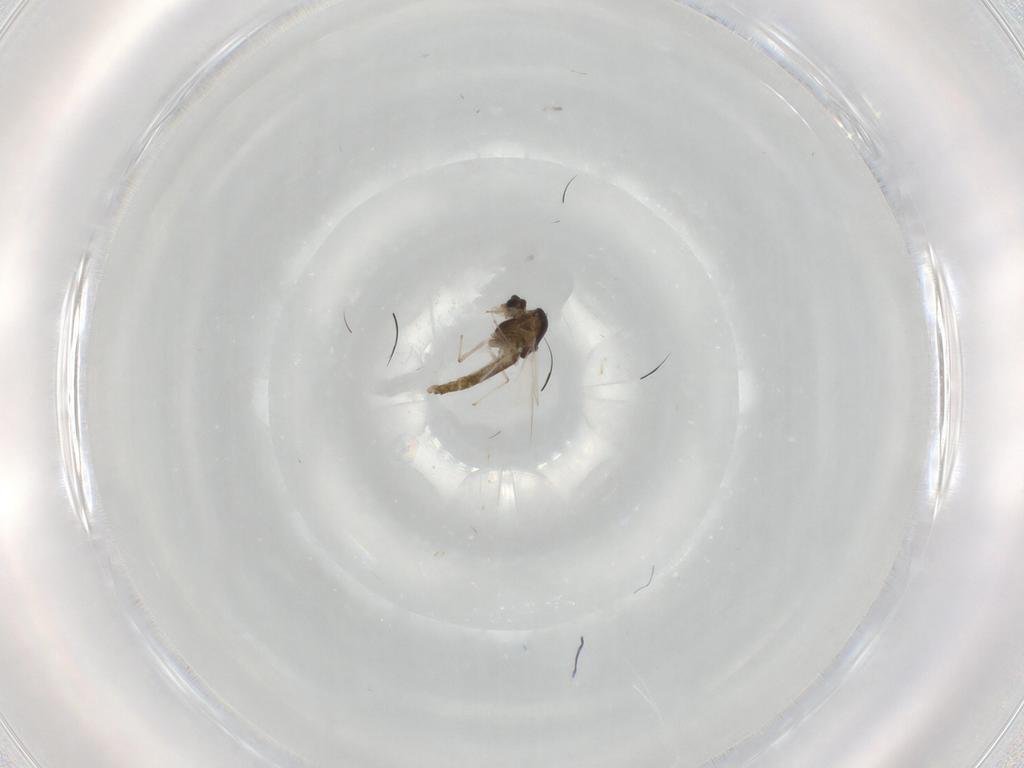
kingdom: Animalia
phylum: Arthropoda
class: Insecta
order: Diptera
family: Chironomidae
